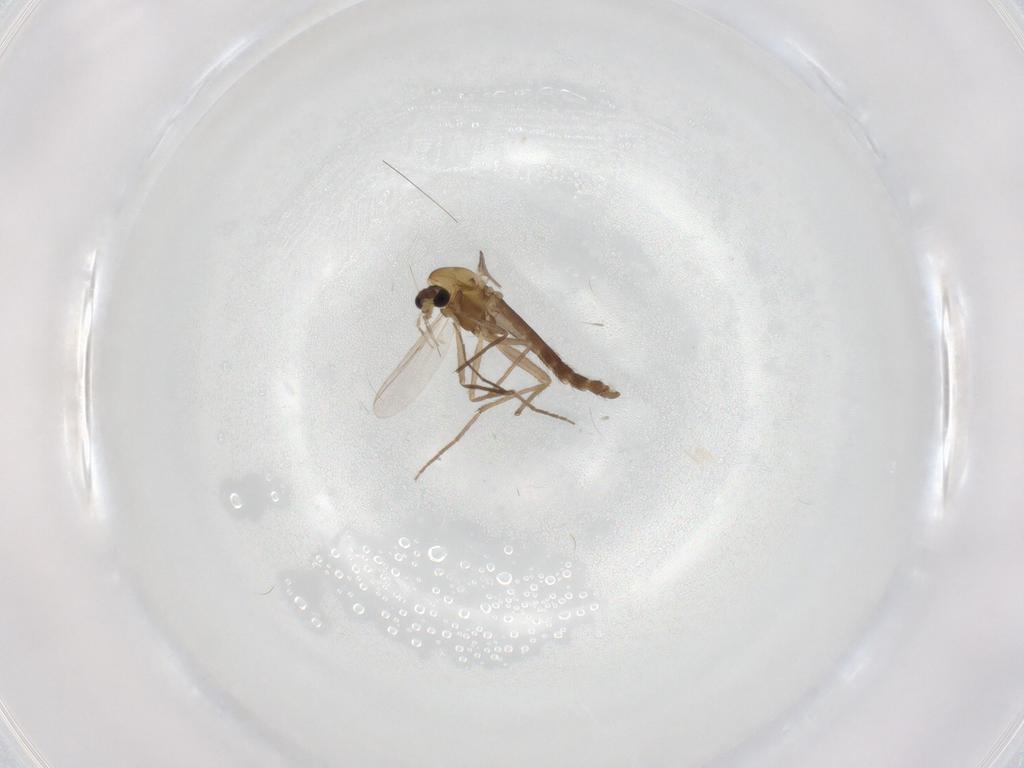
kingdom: Animalia
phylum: Arthropoda
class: Insecta
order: Diptera
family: Chironomidae
